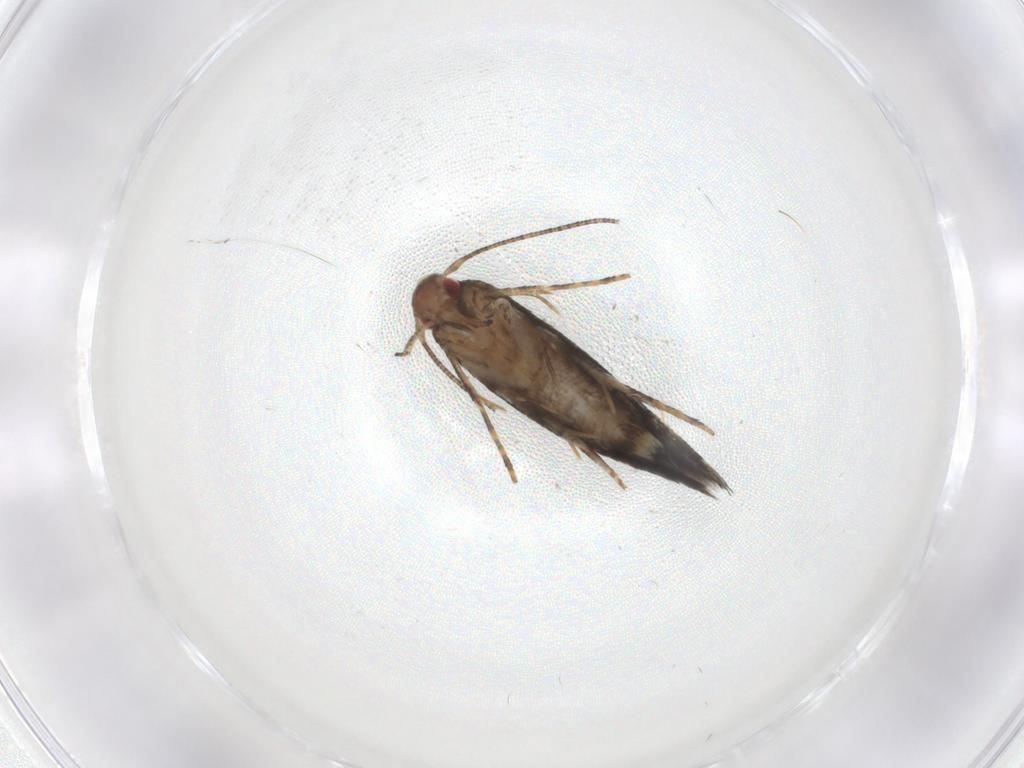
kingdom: Animalia
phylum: Arthropoda
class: Insecta
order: Lepidoptera
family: Momphidae
